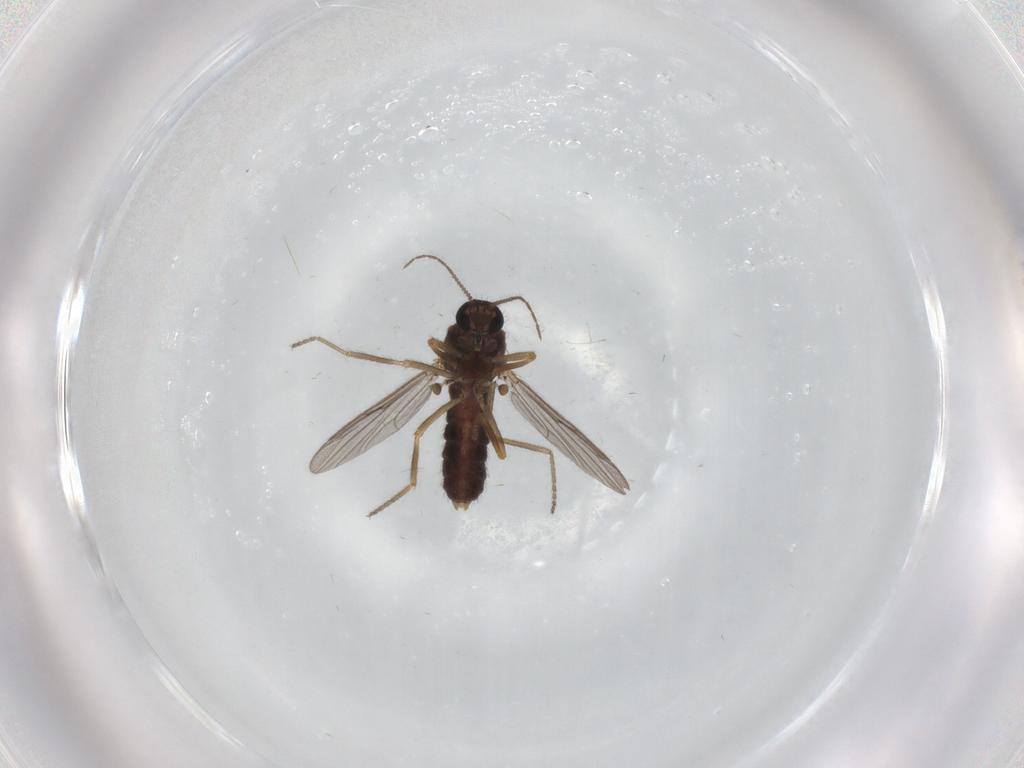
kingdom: Animalia
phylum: Arthropoda
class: Insecta
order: Diptera
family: Ceratopogonidae
